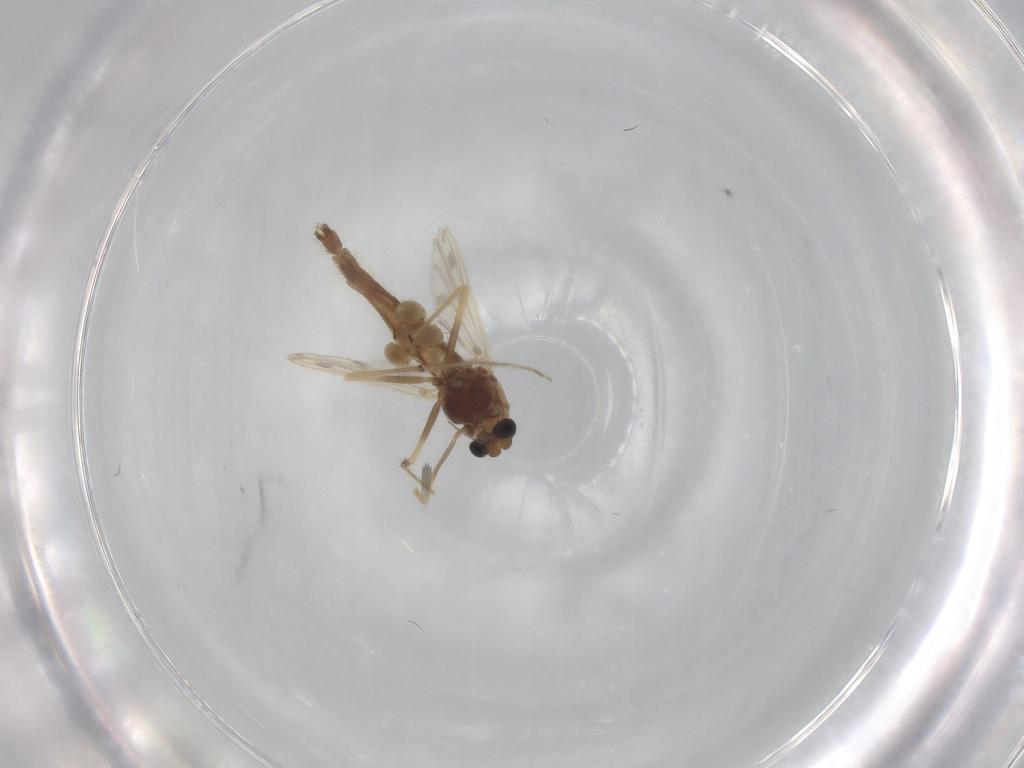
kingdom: Animalia
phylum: Arthropoda
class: Insecta
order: Diptera
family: Chironomidae
